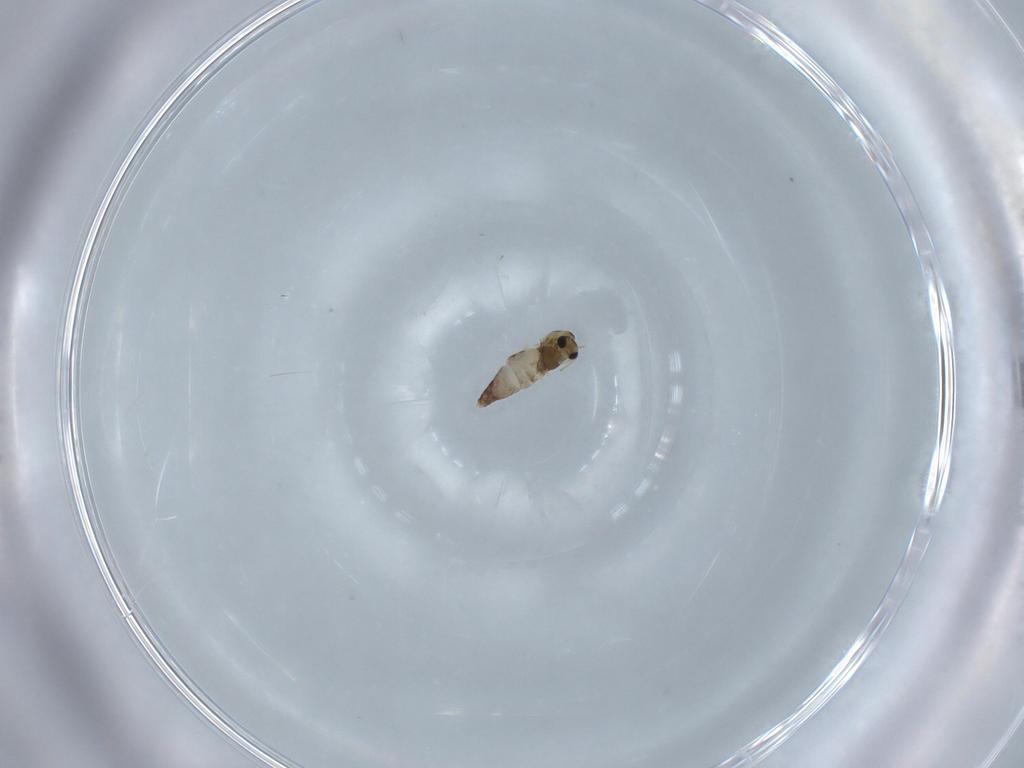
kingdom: Animalia
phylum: Arthropoda
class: Insecta
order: Diptera
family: Chironomidae
